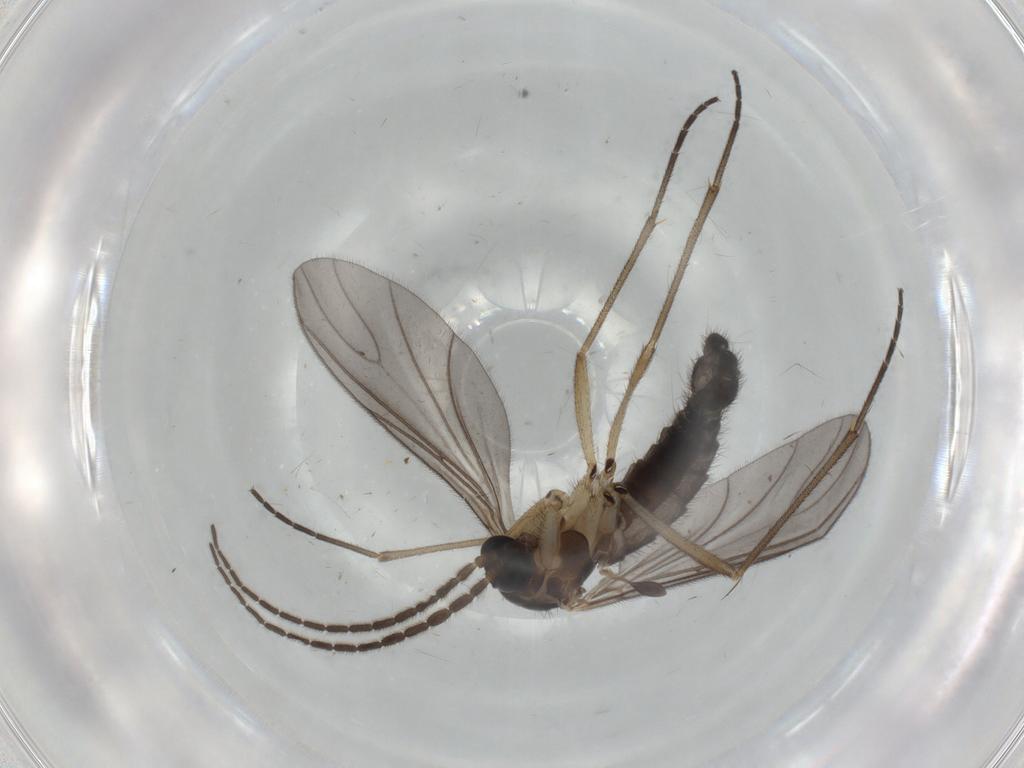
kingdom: Animalia
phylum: Arthropoda
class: Insecta
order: Diptera
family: Sciaridae
